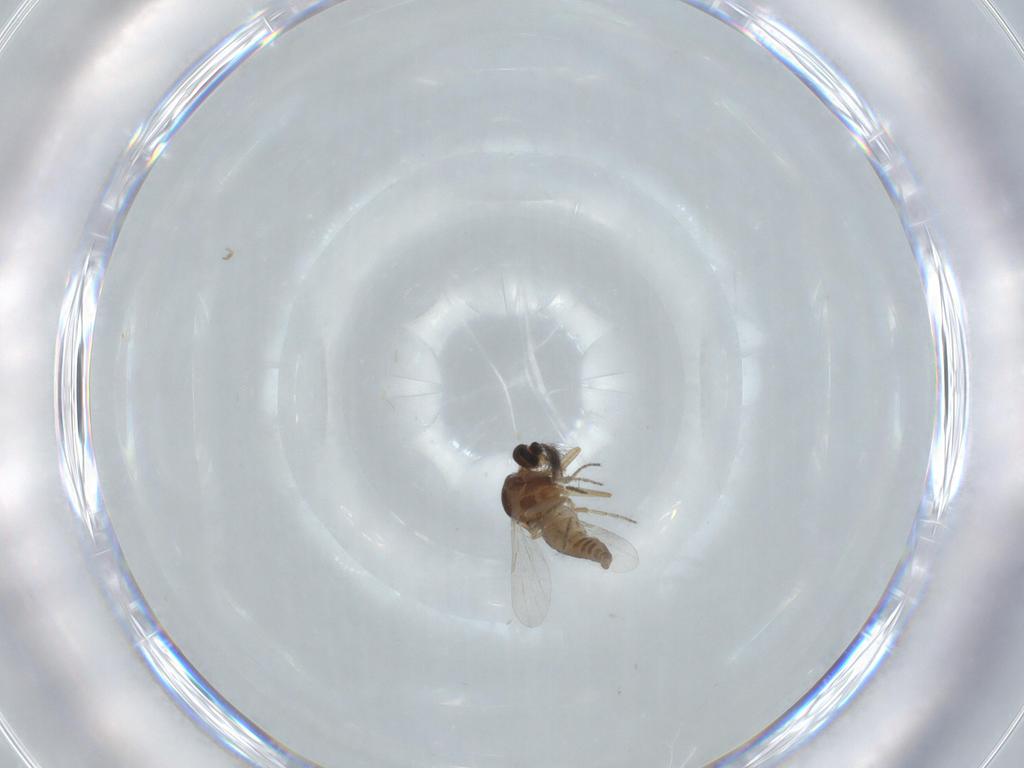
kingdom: Animalia
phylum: Arthropoda
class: Insecta
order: Diptera
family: Ceratopogonidae
